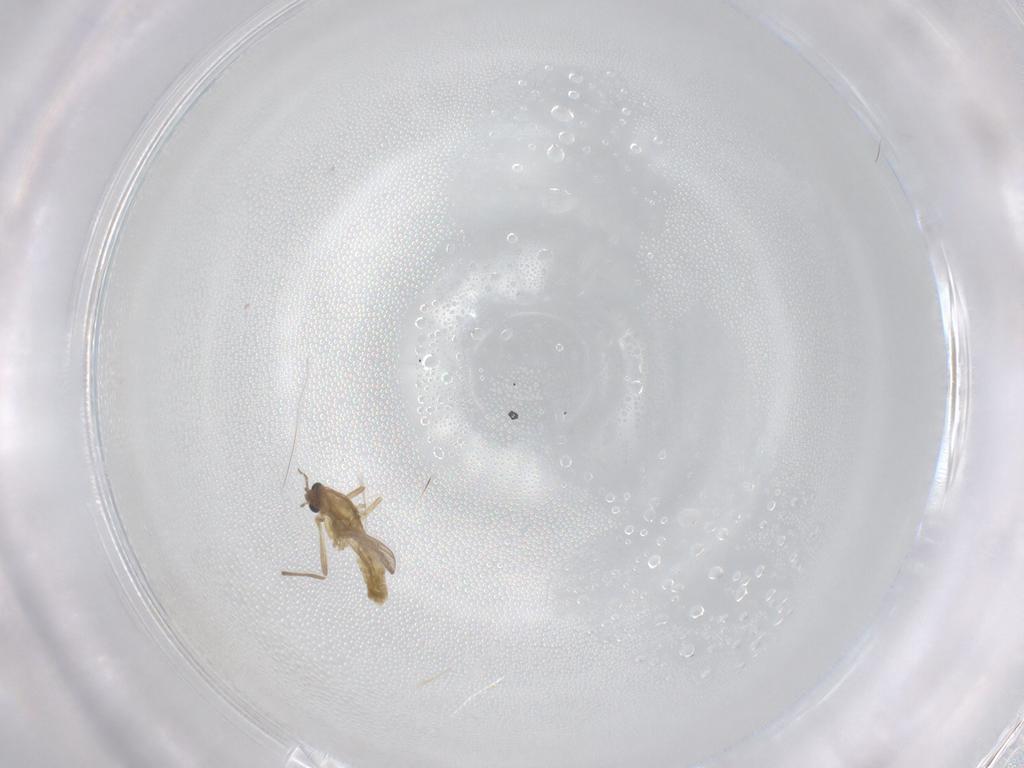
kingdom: Animalia
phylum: Arthropoda
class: Insecta
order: Diptera
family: Chironomidae
